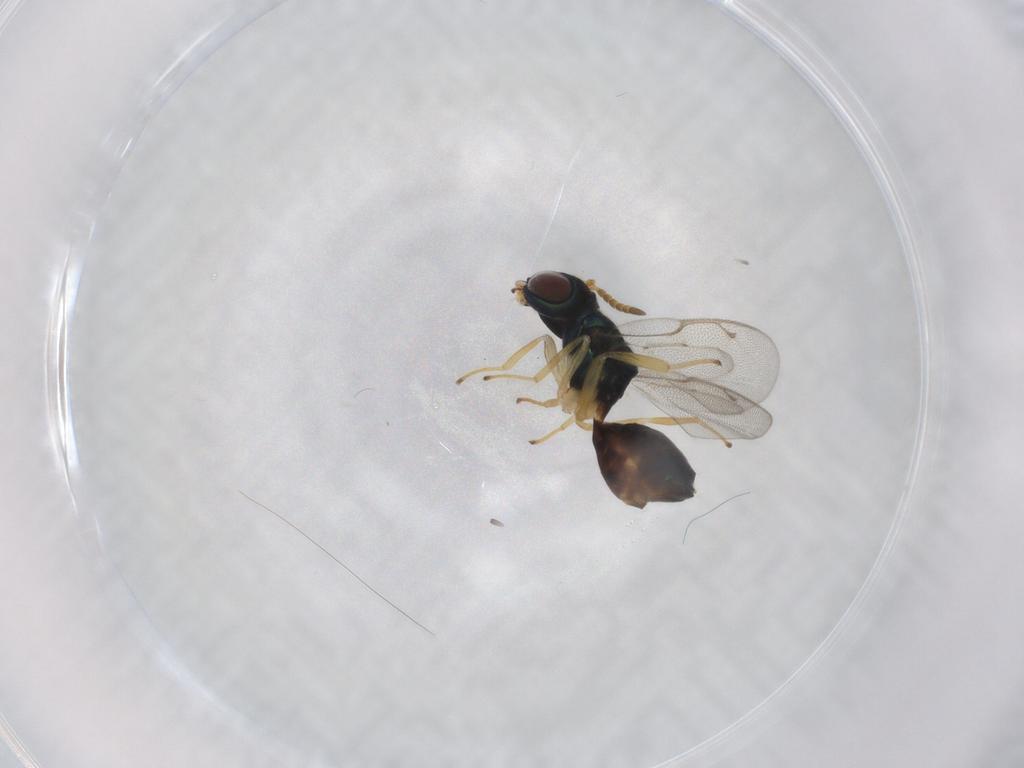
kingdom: Animalia
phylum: Arthropoda
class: Insecta
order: Hymenoptera
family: Pteromalidae
